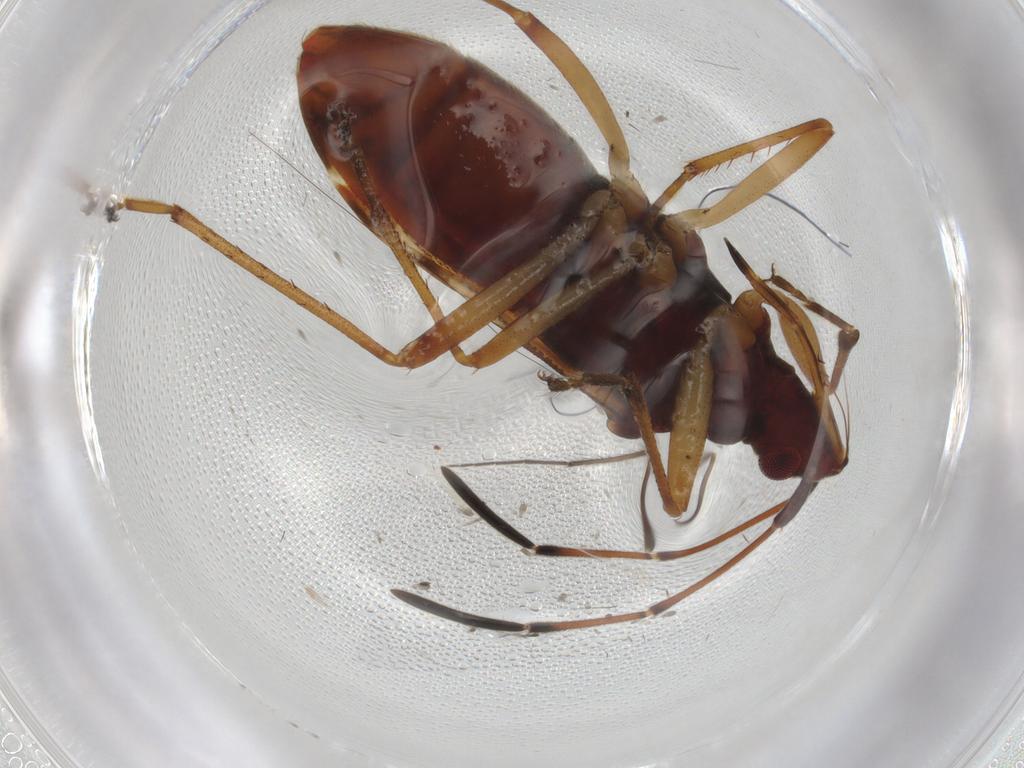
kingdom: Animalia
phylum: Arthropoda
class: Insecta
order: Hemiptera
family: Rhyparochromidae
